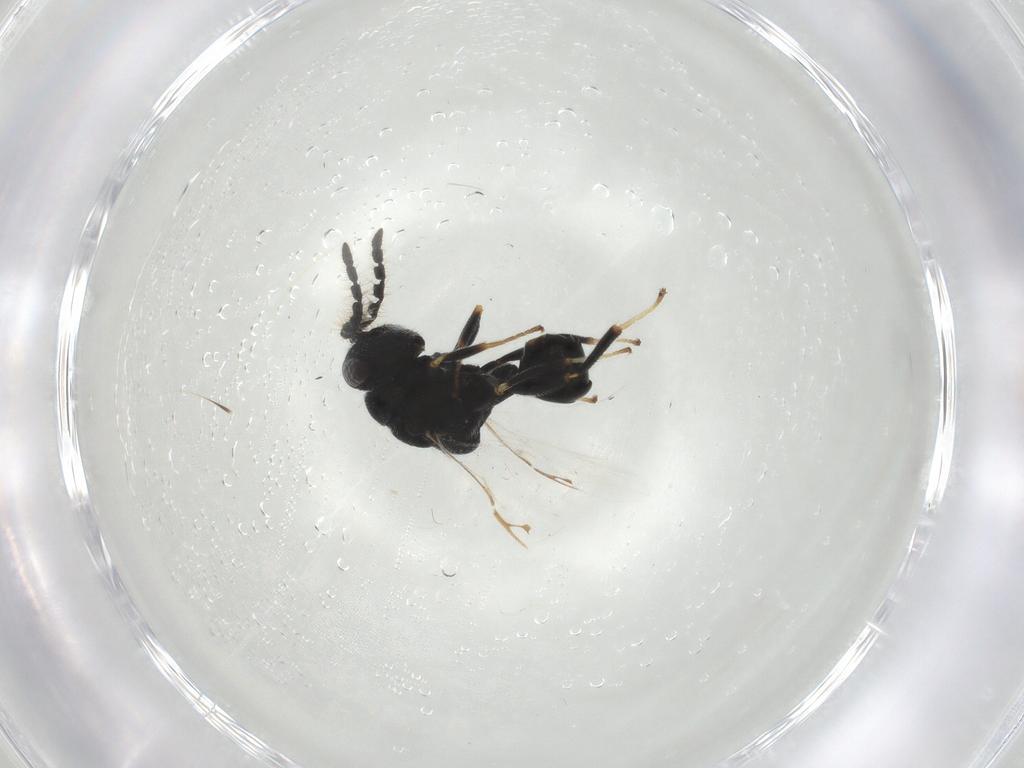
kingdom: Animalia
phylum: Arthropoda
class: Insecta
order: Hymenoptera
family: Eurytomidae
